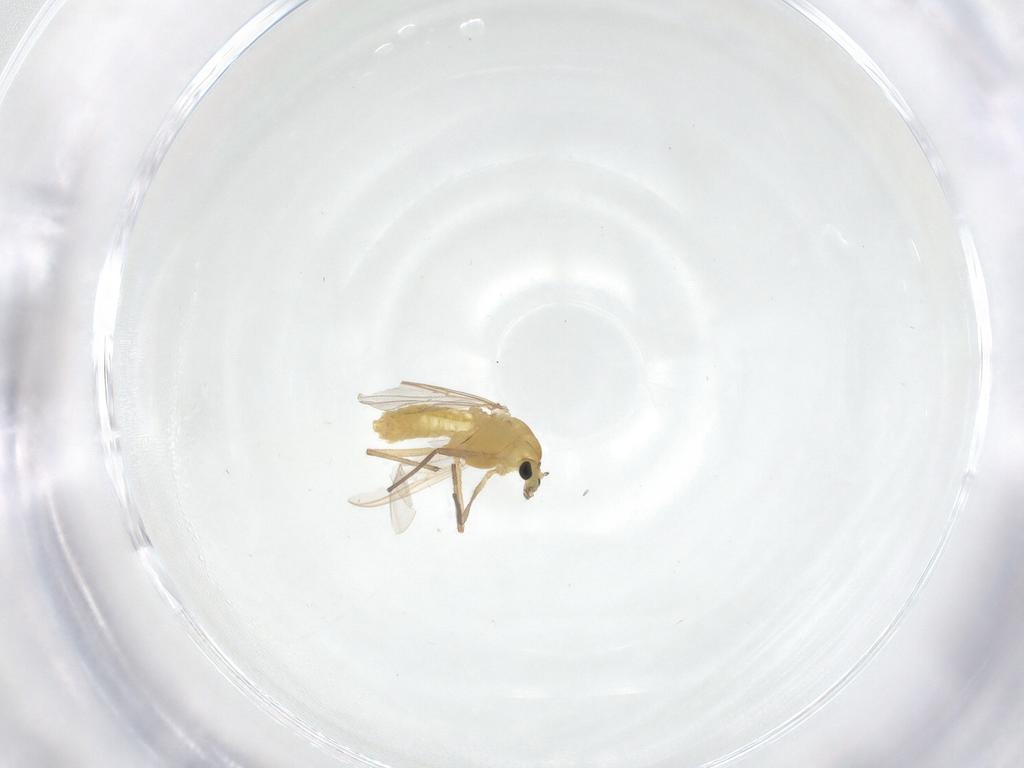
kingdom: Animalia
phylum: Arthropoda
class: Insecta
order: Diptera
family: Chironomidae
